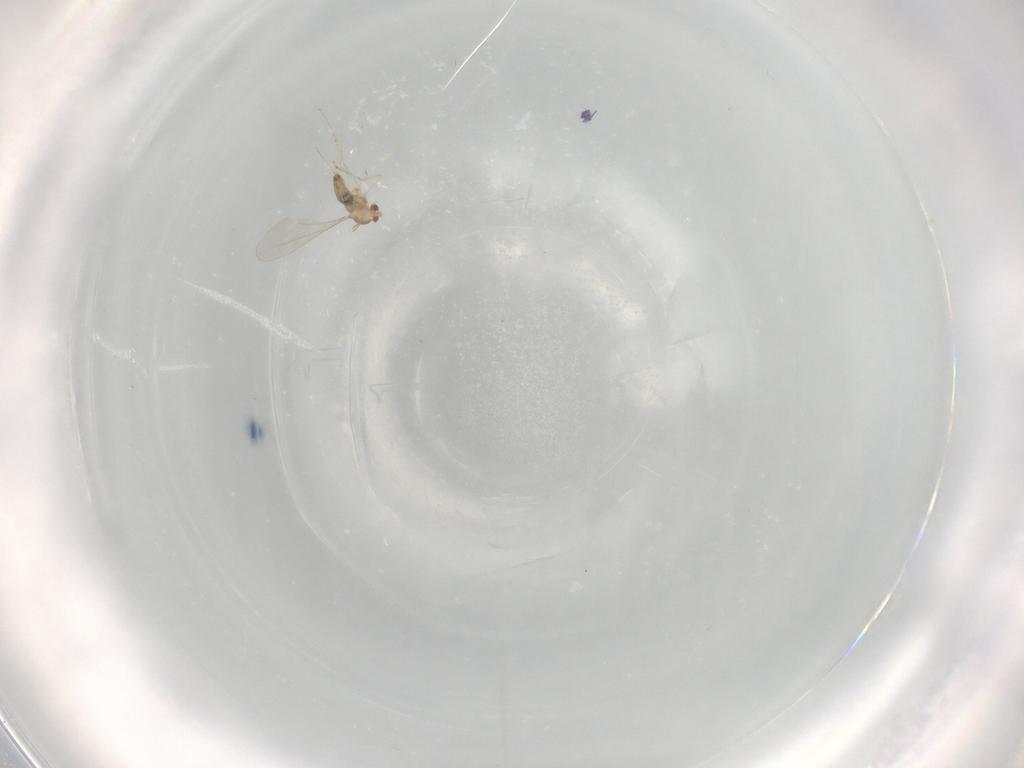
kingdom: Animalia
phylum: Arthropoda
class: Insecta
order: Diptera
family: Cecidomyiidae
